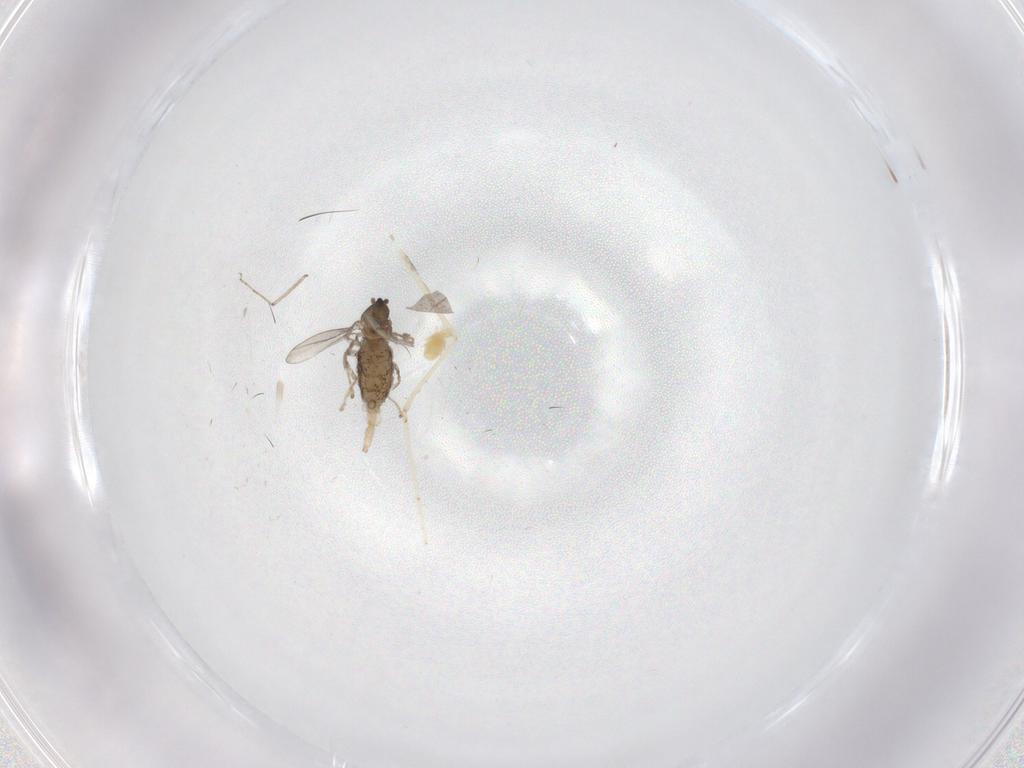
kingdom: Animalia
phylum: Arthropoda
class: Insecta
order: Diptera
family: Cecidomyiidae
